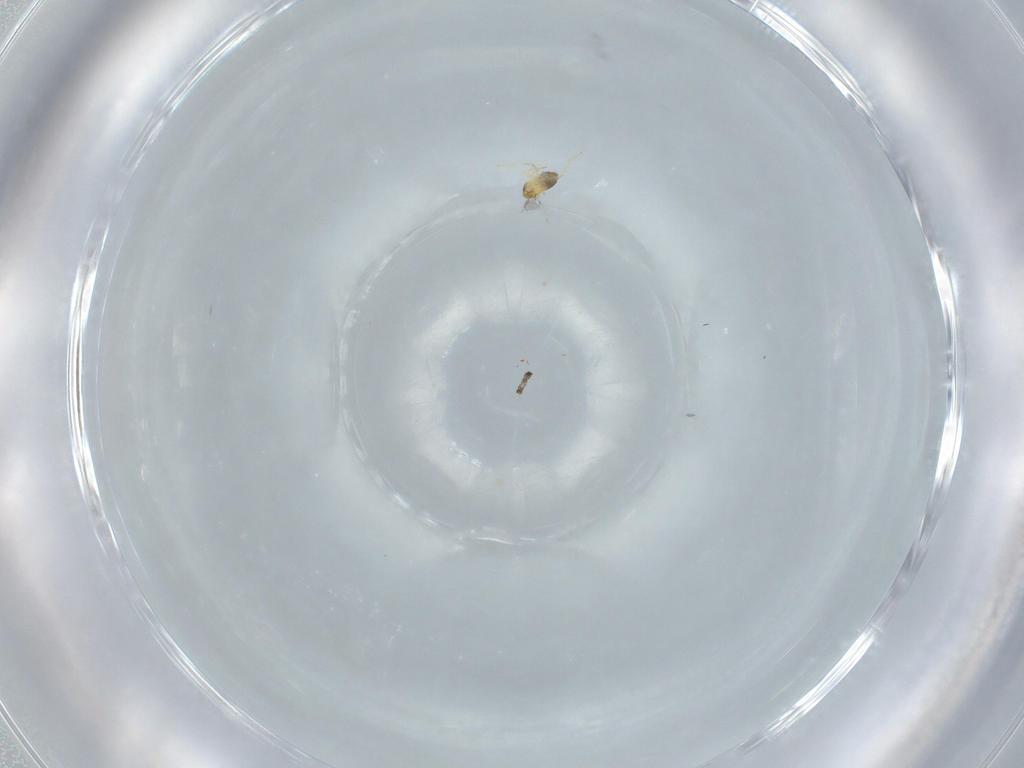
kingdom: Animalia
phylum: Arthropoda
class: Insecta
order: Hymenoptera
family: Trichogrammatidae
